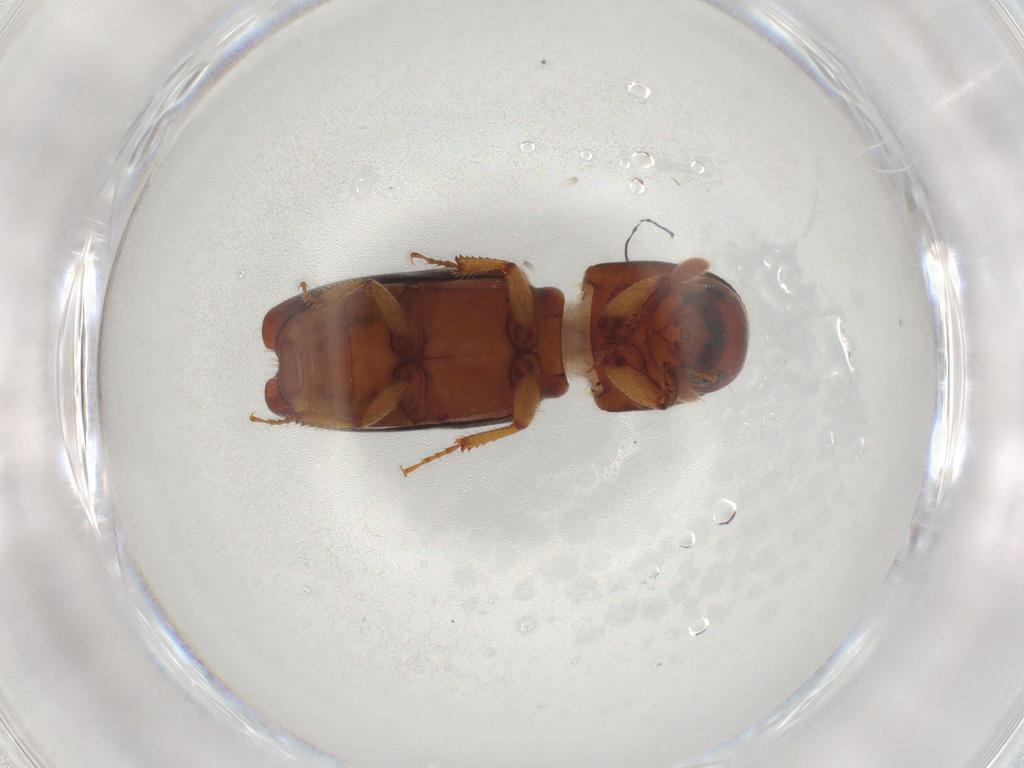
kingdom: Animalia
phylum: Arthropoda
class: Insecta
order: Coleoptera
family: Curculionidae
